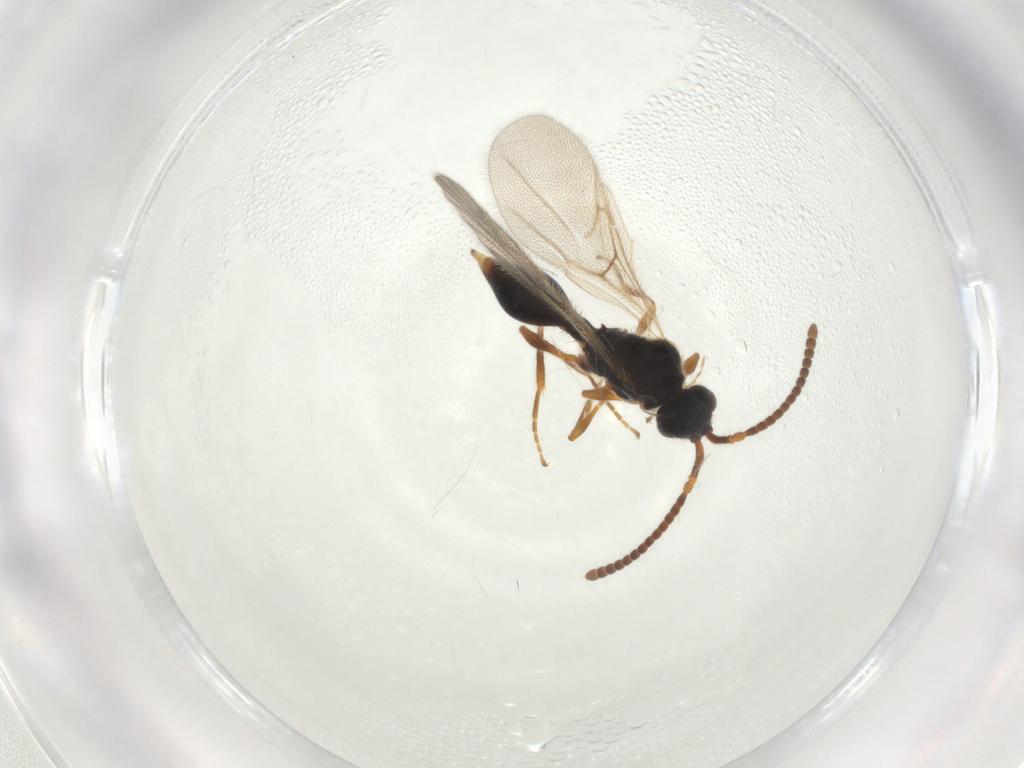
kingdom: Animalia
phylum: Arthropoda
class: Insecta
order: Hymenoptera
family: Diapriidae
